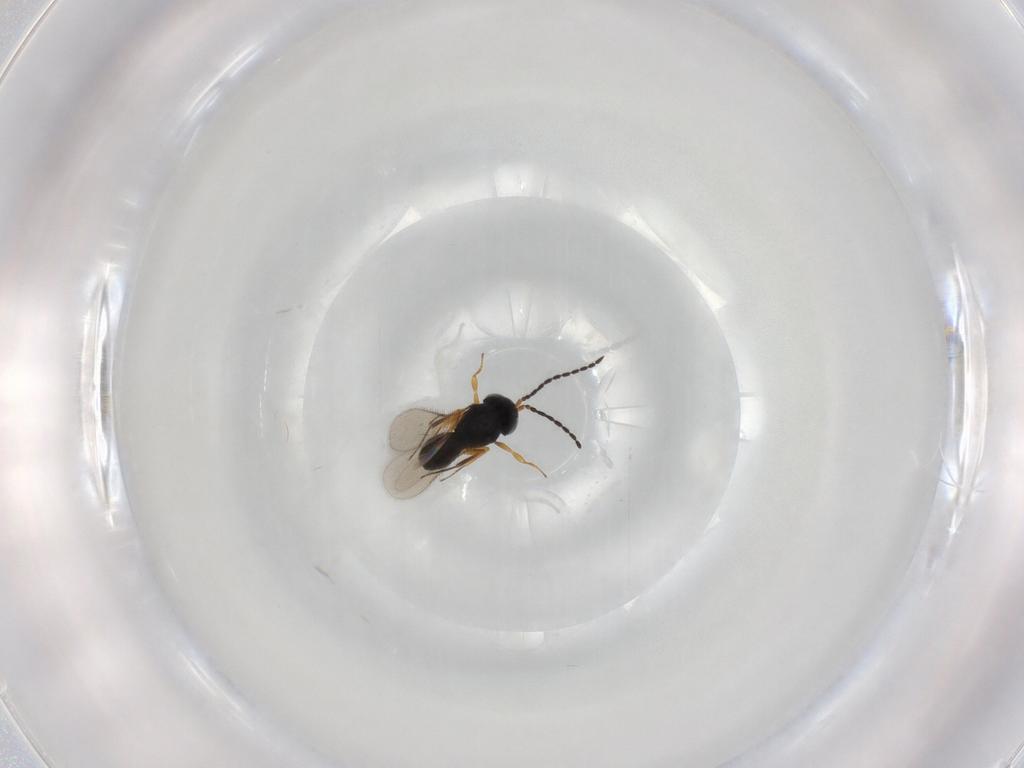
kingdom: Animalia
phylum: Arthropoda
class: Insecta
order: Hymenoptera
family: Scelionidae
